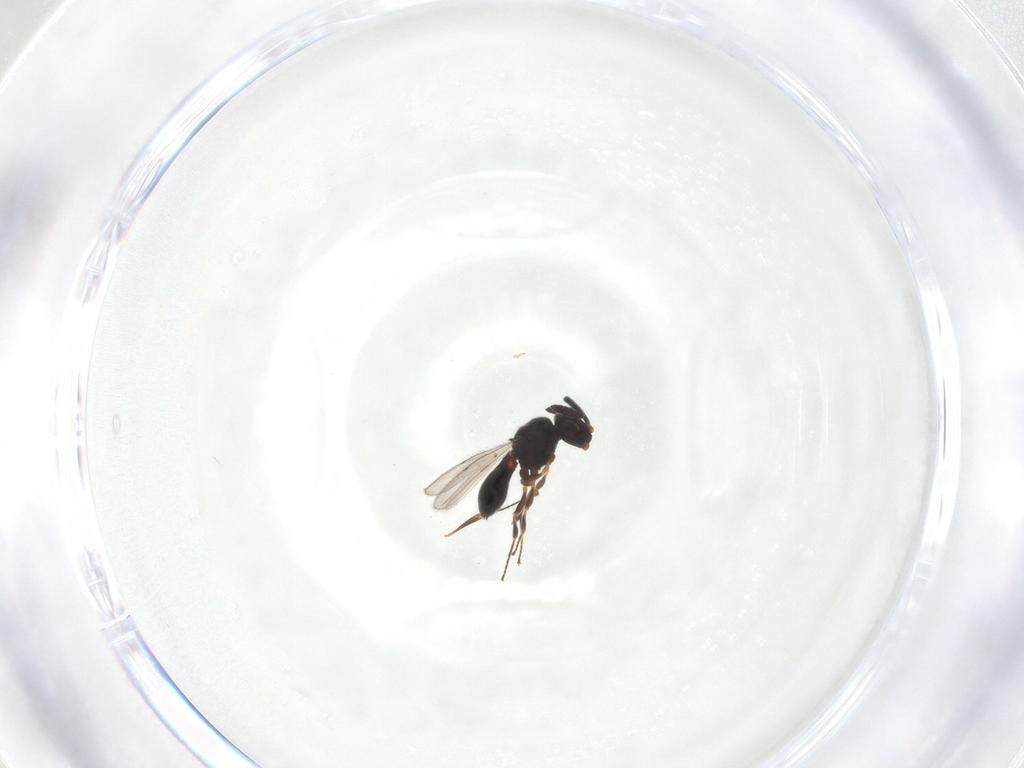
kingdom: Animalia
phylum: Arthropoda
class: Insecta
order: Hymenoptera
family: Scelionidae
